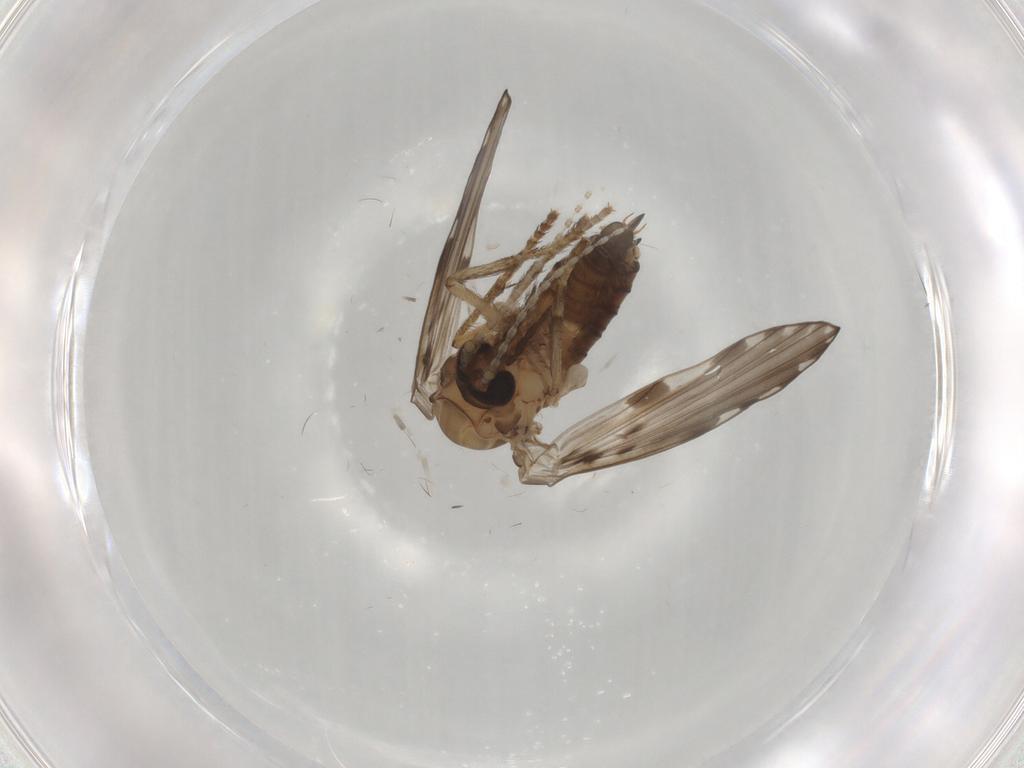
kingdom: Animalia
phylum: Arthropoda
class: Insecta
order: Diptera
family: Psychodidae
